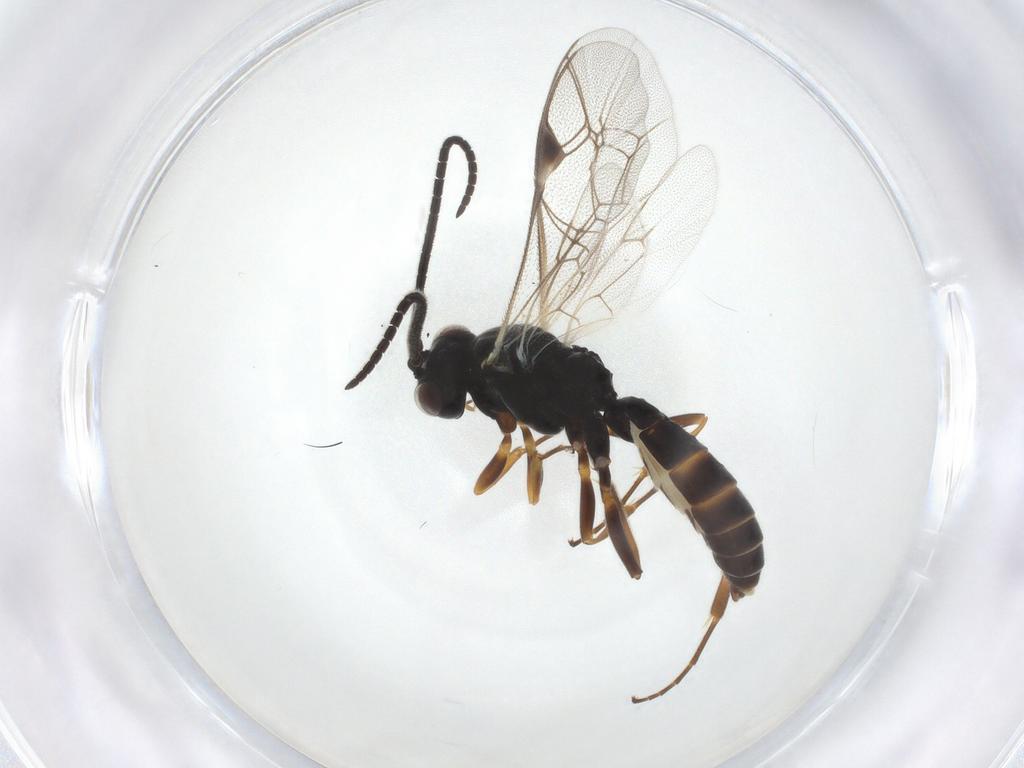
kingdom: Animalia
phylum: Arthropoda
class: Insecta
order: Hymenoptera
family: Ichneumonidae
